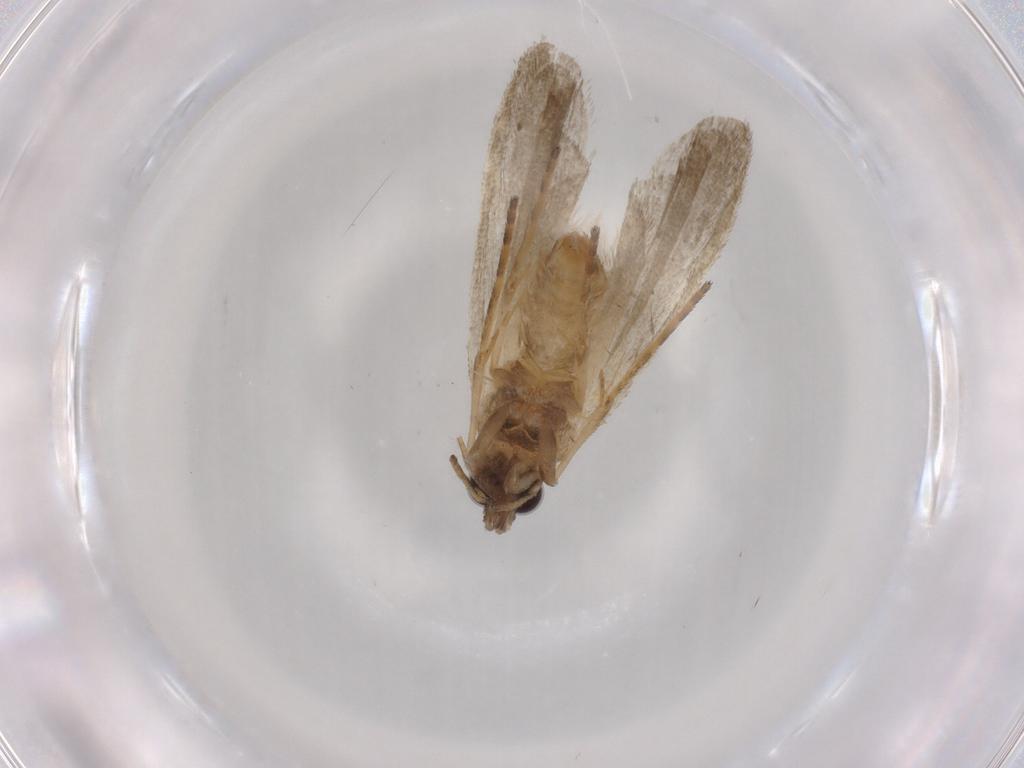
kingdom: Animalia
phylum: Arthropoda
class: Insecta
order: Lepidoptera
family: Noctuidae
